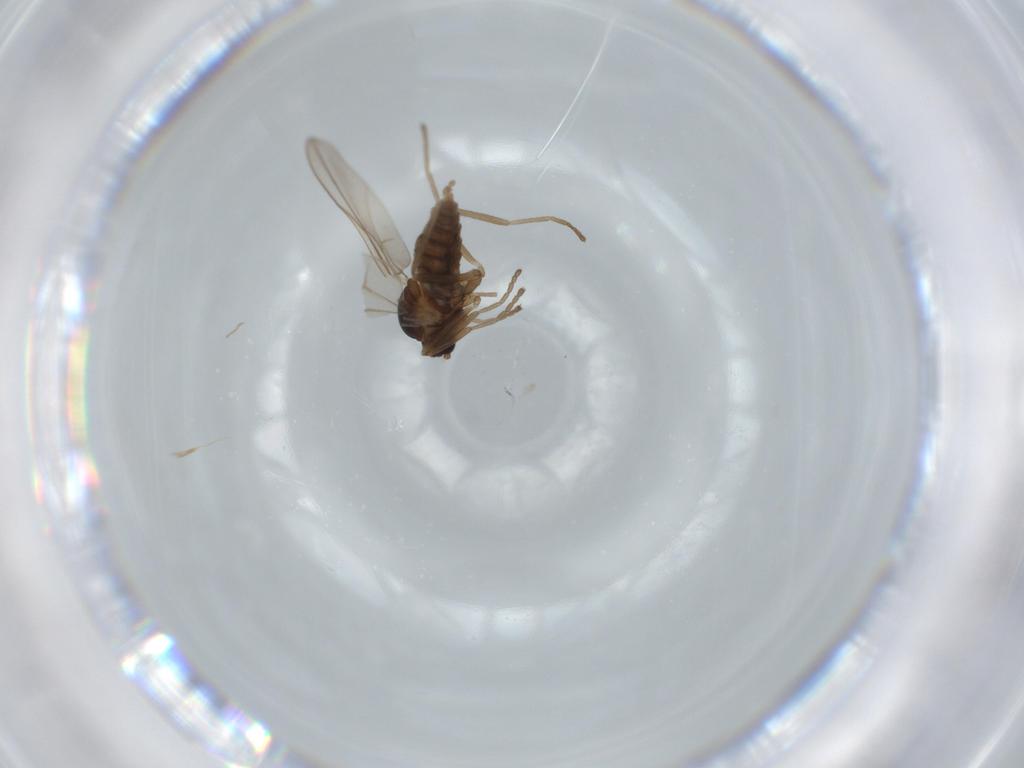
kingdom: Animalia
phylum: Arthropoda
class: Insecta
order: Diptera
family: Cecidomyiidae
